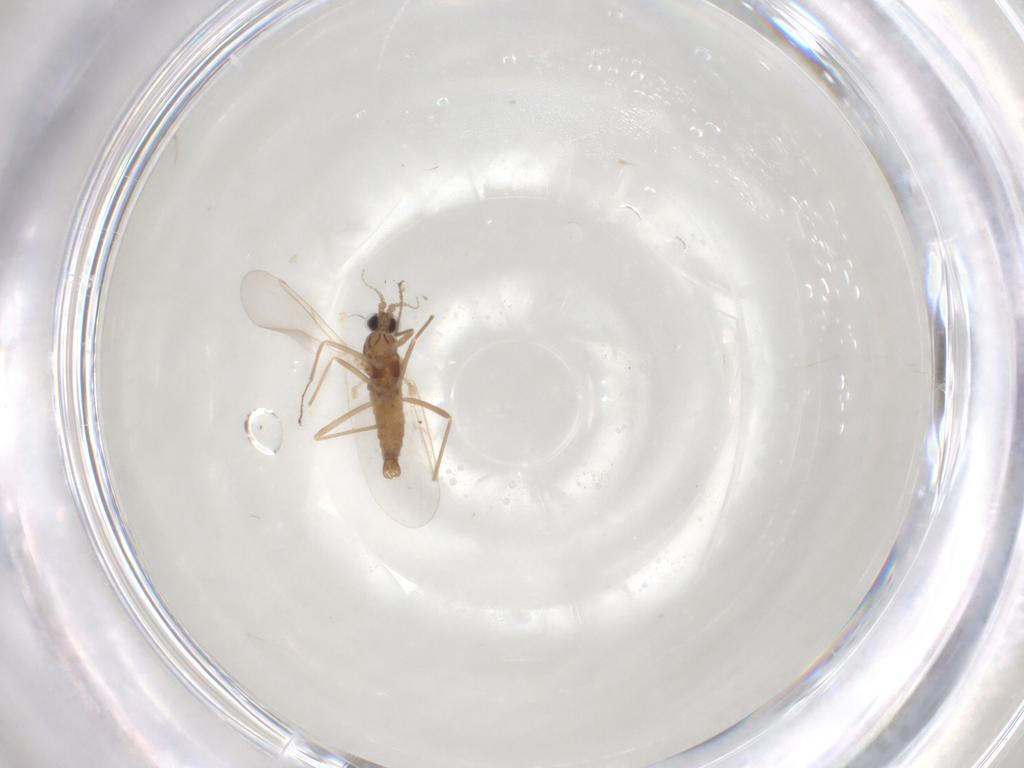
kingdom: Animalia
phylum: Arthropoda
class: Insecta
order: Diptera
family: Cecidomyiidae
